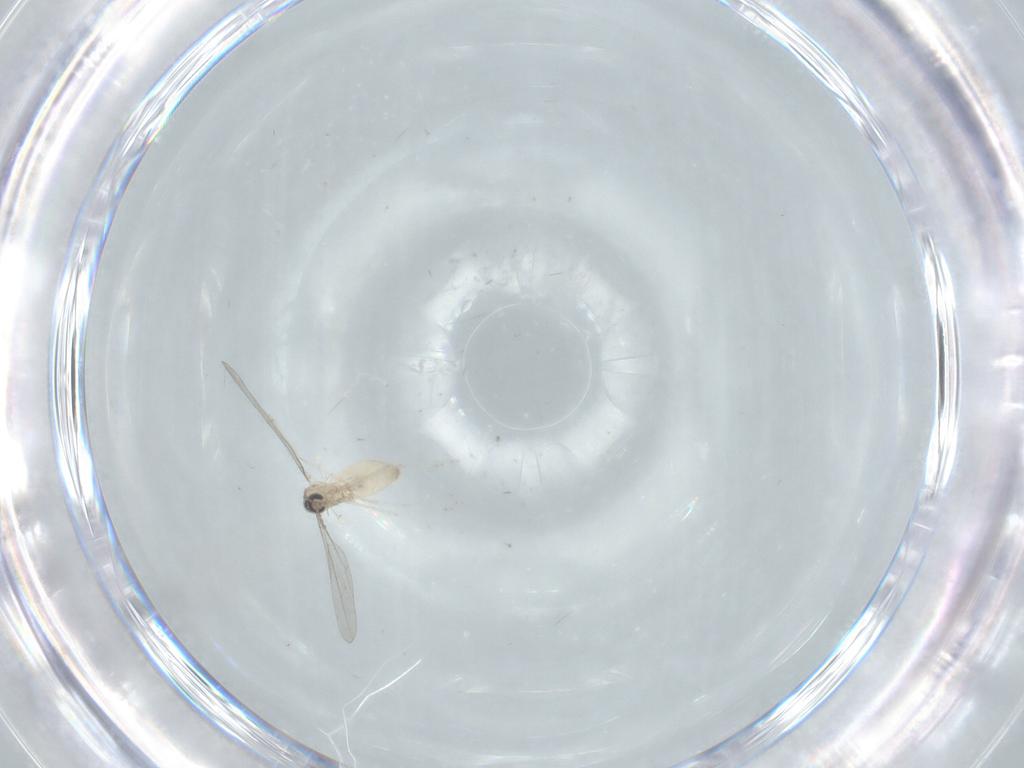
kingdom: Animalia
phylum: Arthropoda
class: Insecta
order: Diptera
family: Cecidomyiidae
